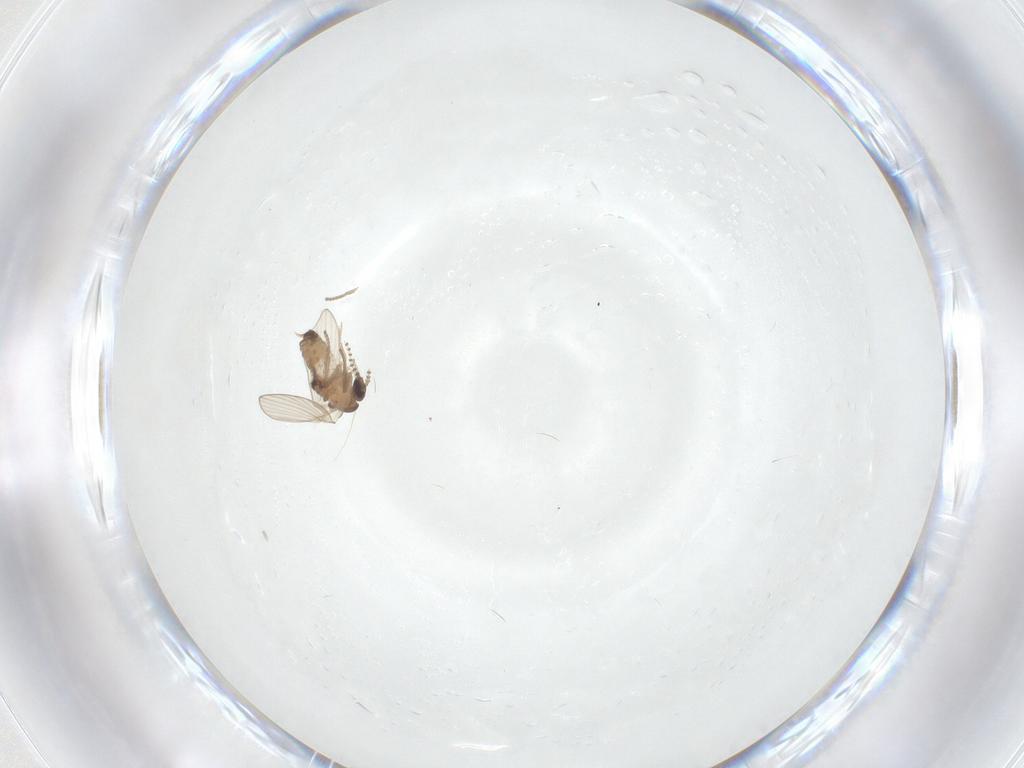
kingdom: Animalia
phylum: Arthropoda
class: Insecta
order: Diptera
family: Psychodidae
